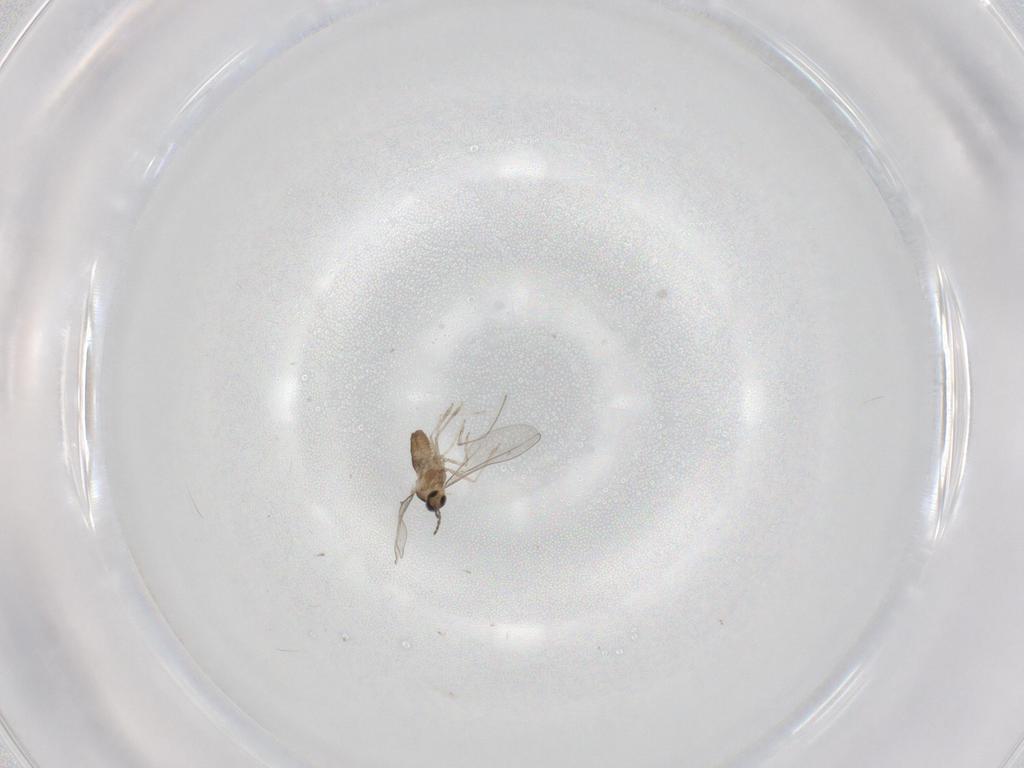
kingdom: Animalia
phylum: Arthropoda
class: Insecta
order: Diptera
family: Cecidomyiidae
